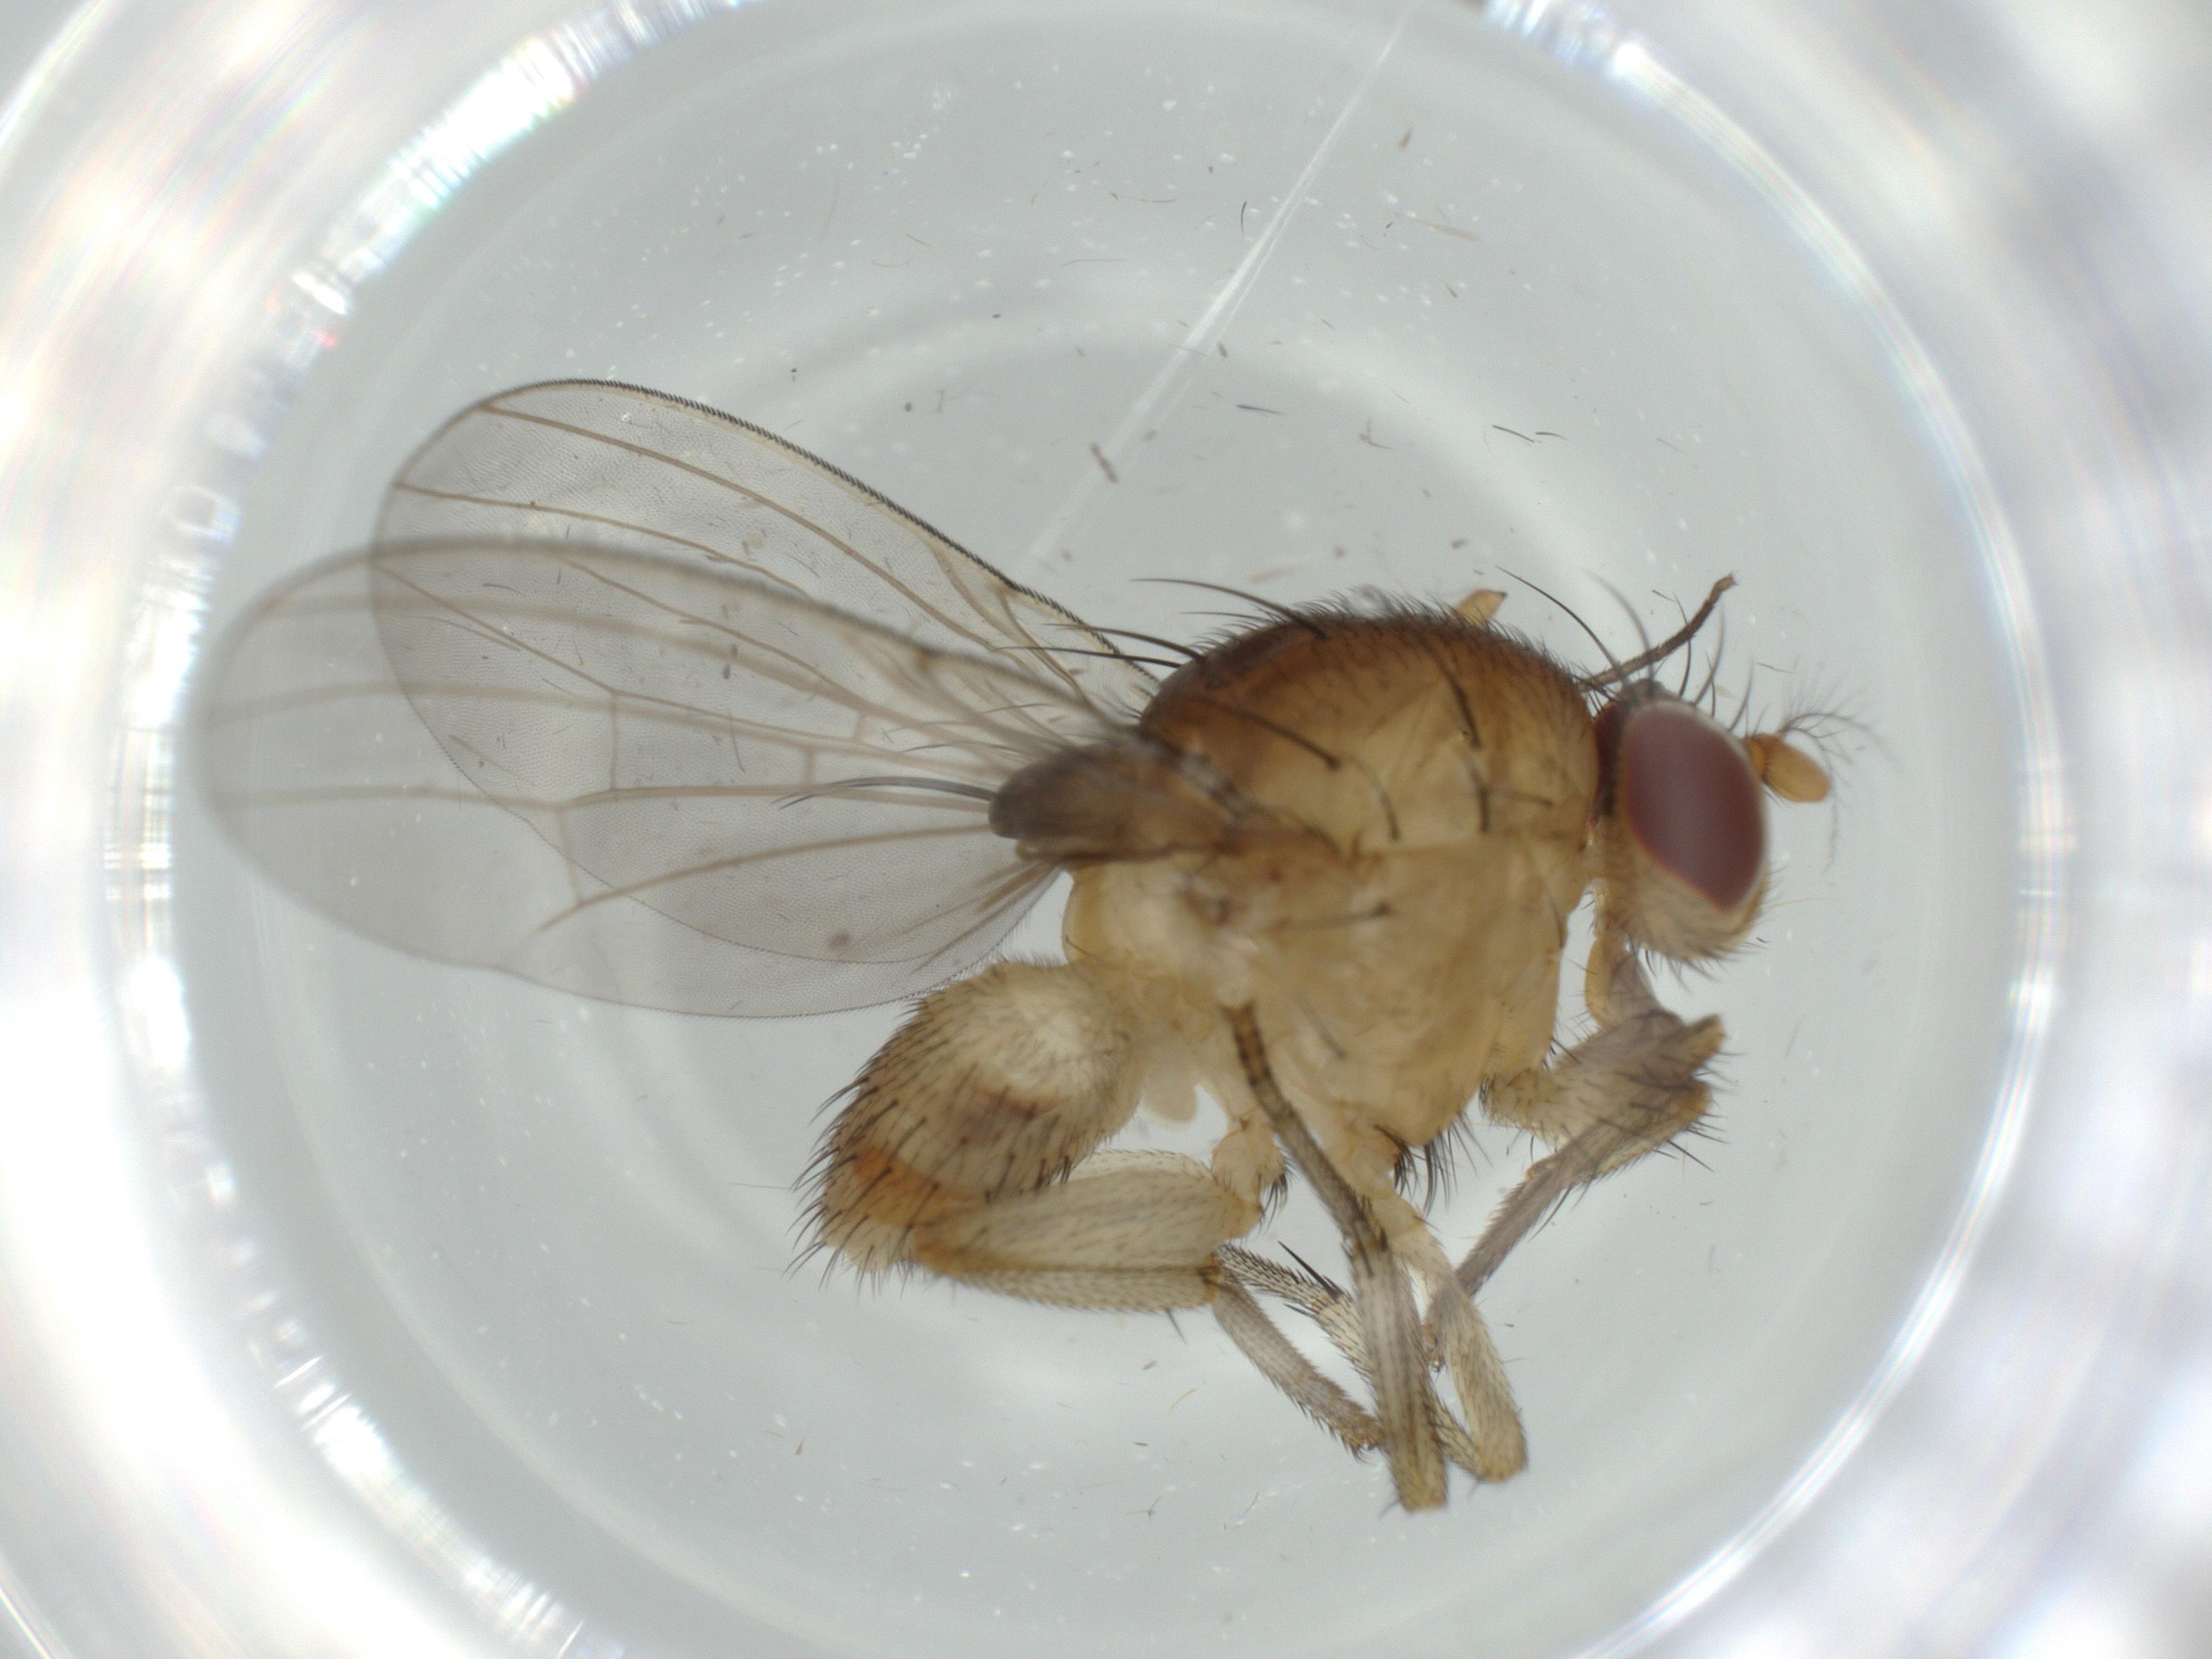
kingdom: Animalia
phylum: Arthropoda
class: Insecta
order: Diptera
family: Phoridae
